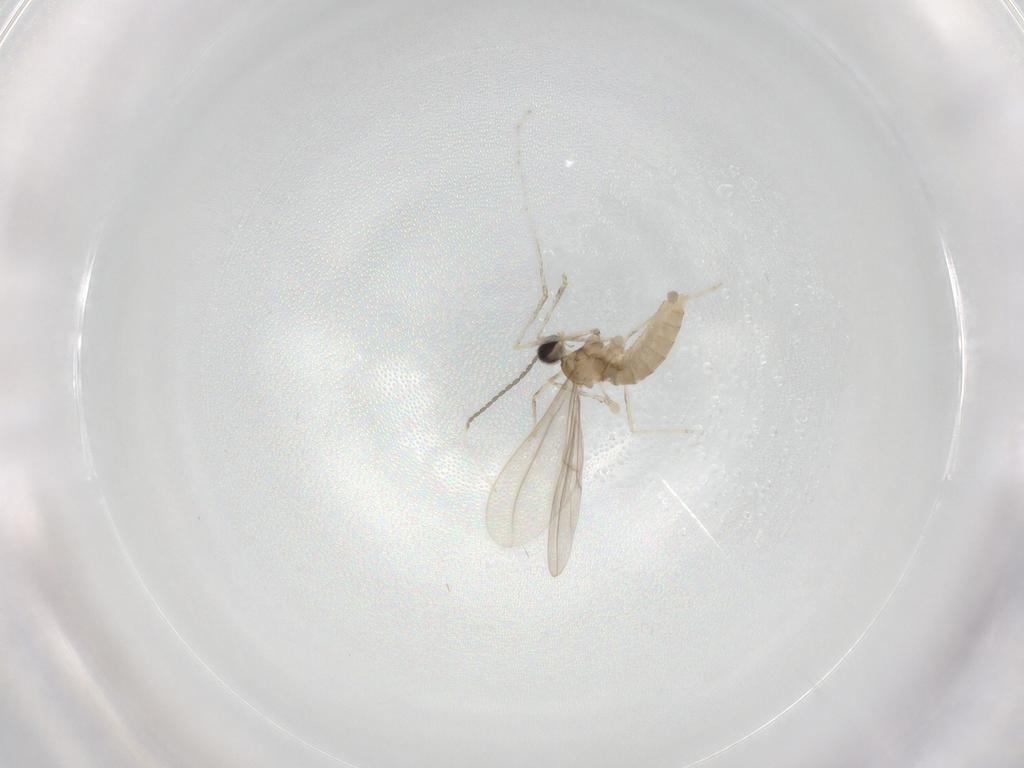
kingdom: Animalia
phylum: Arthropoda
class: Insecta
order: Diptera
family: Cecidomyiidae
